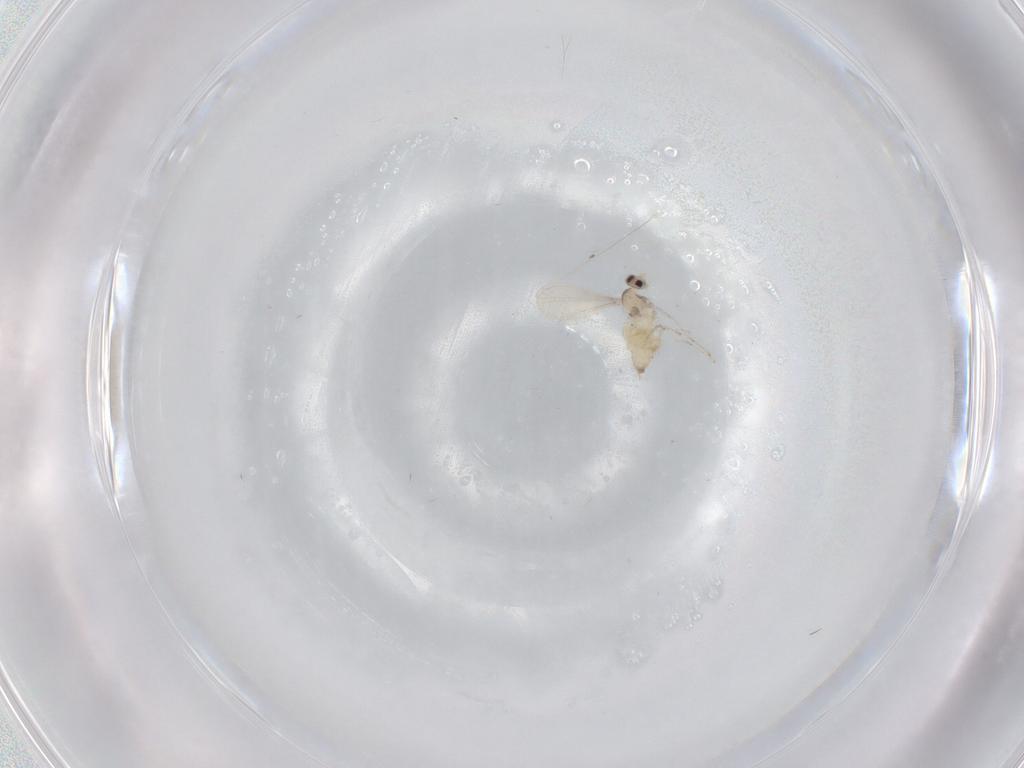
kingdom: Animalia
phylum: Arthropoda
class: Insecta
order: Diptera
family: Cecidomyiidae
